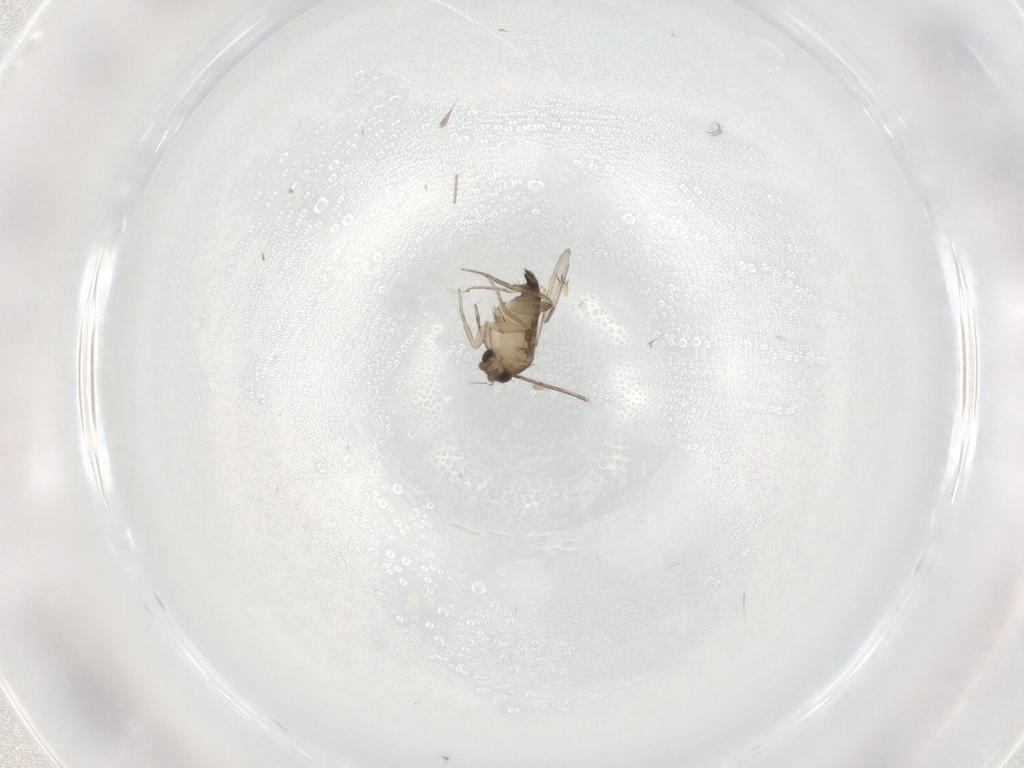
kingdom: Animalia
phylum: Arthropoda
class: Insecta
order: Diptera
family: Phoridae
